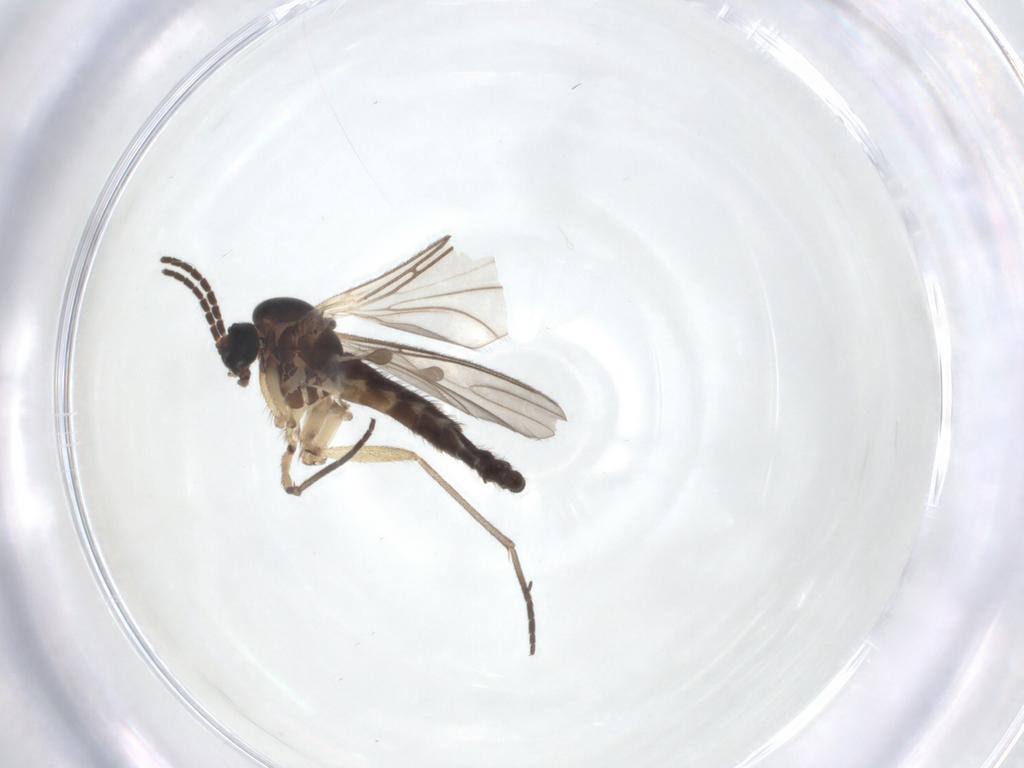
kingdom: Animalia
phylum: Arthropoda
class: Insecta
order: Diptera
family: Sciaridae
